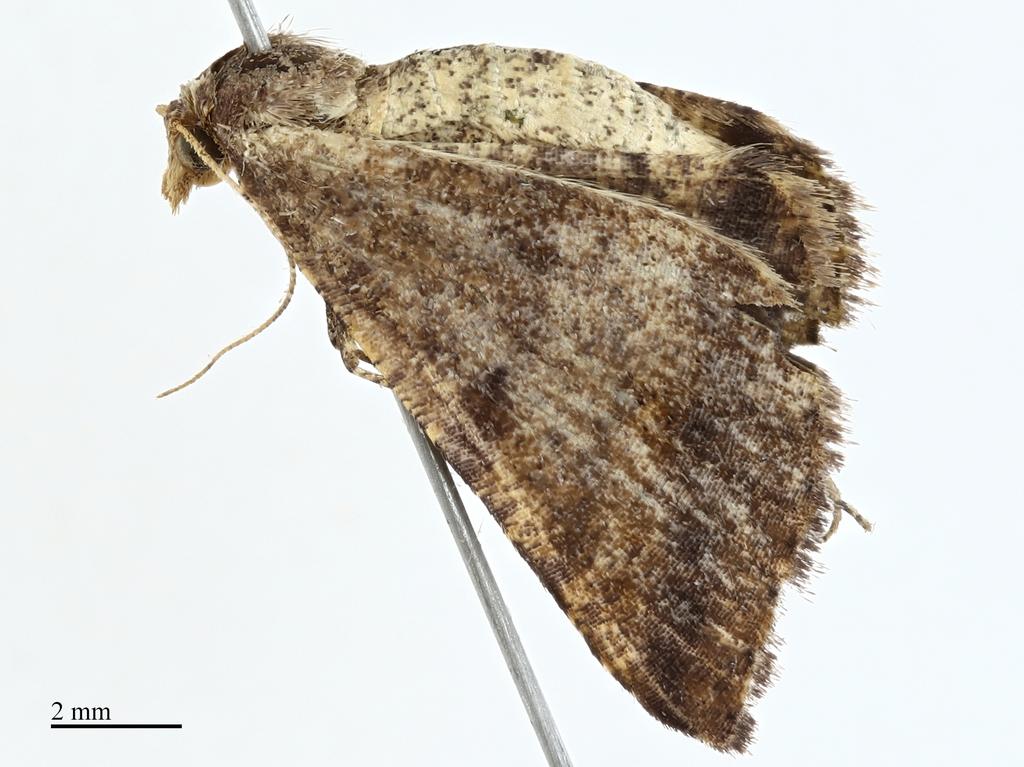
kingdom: Animalia
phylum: Arthropoda
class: Insecta
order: Lepidoptera
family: Geometridae
